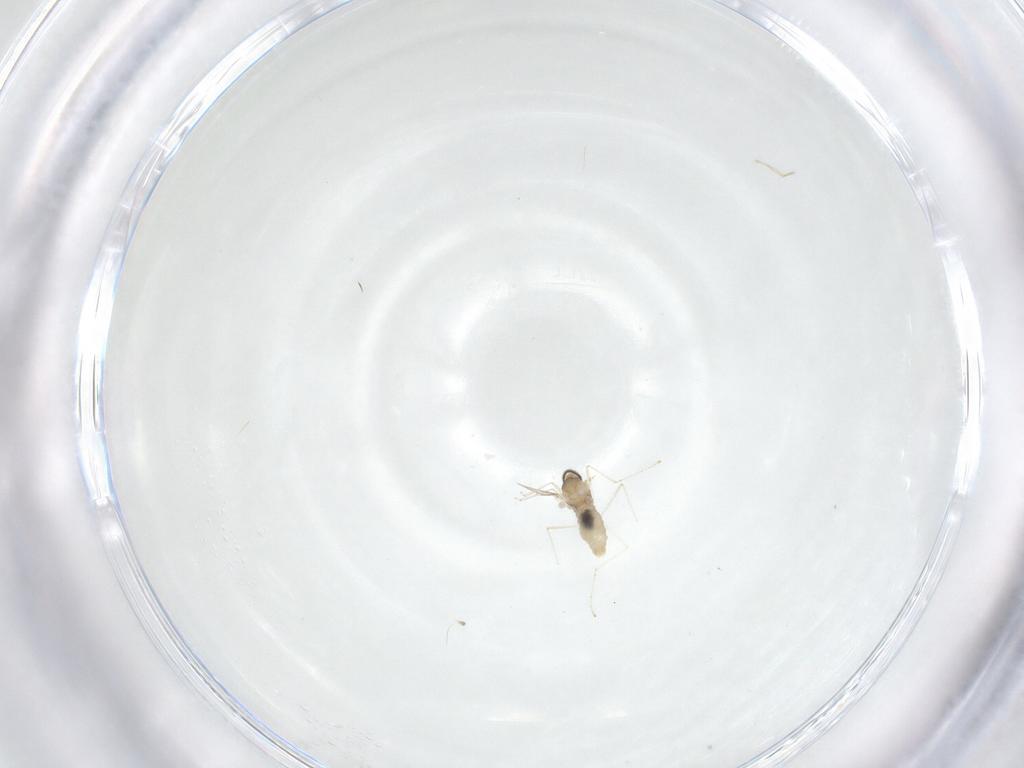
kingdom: Animalia
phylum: Arthropoda
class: Insecta
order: Diptera
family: Cecidomyiidae
